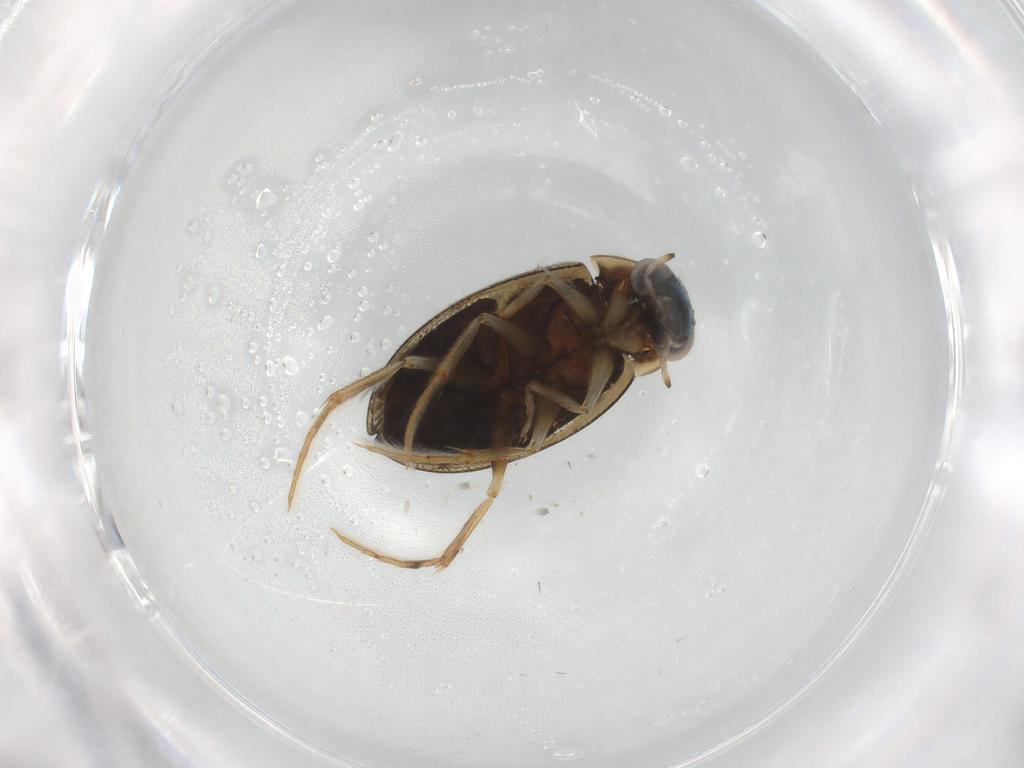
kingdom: Animalia
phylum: Arthropoda
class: Insecta
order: Coleoptera
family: Hydrophilidae
